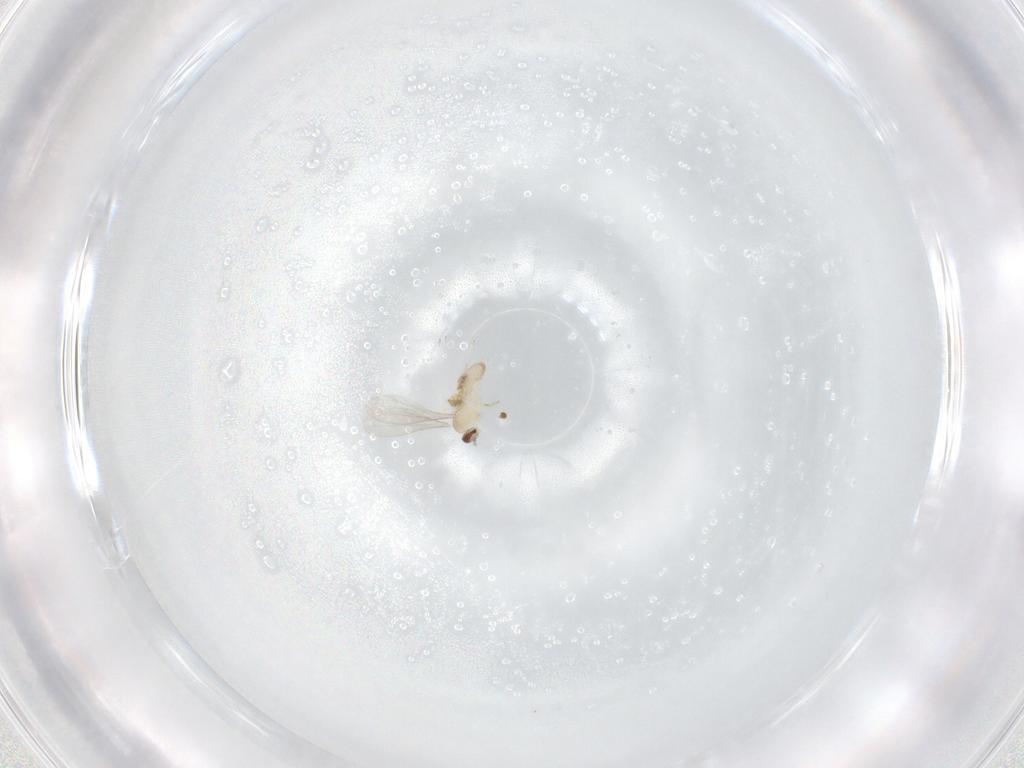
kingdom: Animalia
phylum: Arthropoda
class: Insecta
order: Diptera
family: Cecidomyiidae
